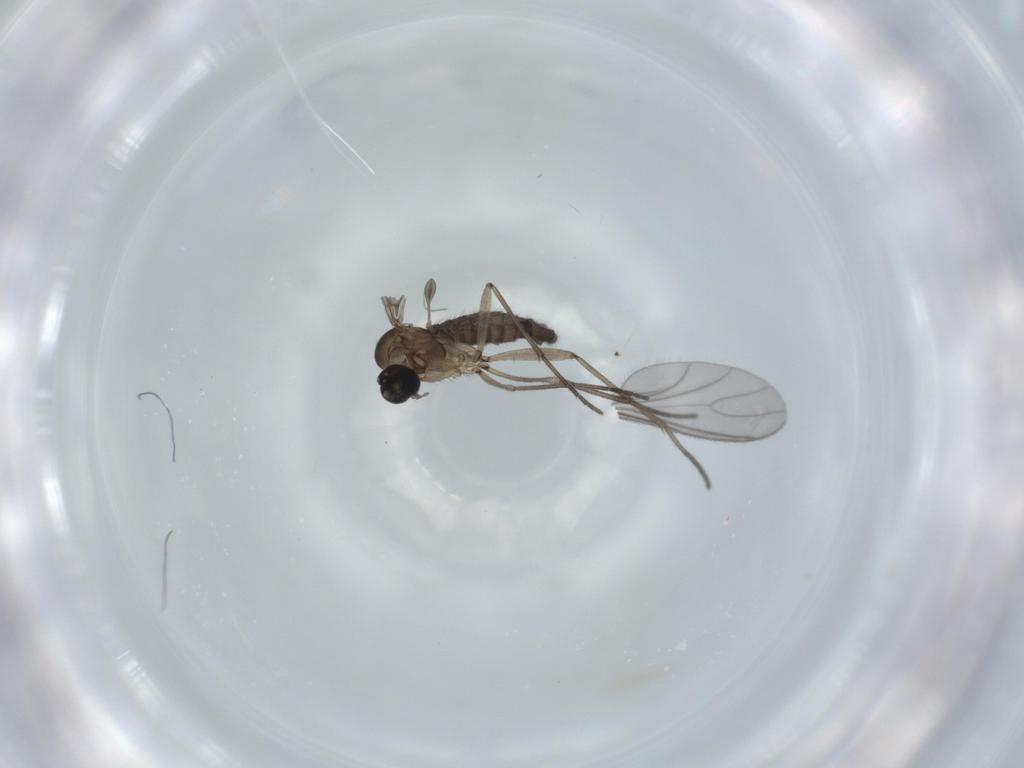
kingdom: Animalia
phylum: Arthropoda
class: Insecta
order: Diptera
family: Sciaridae
